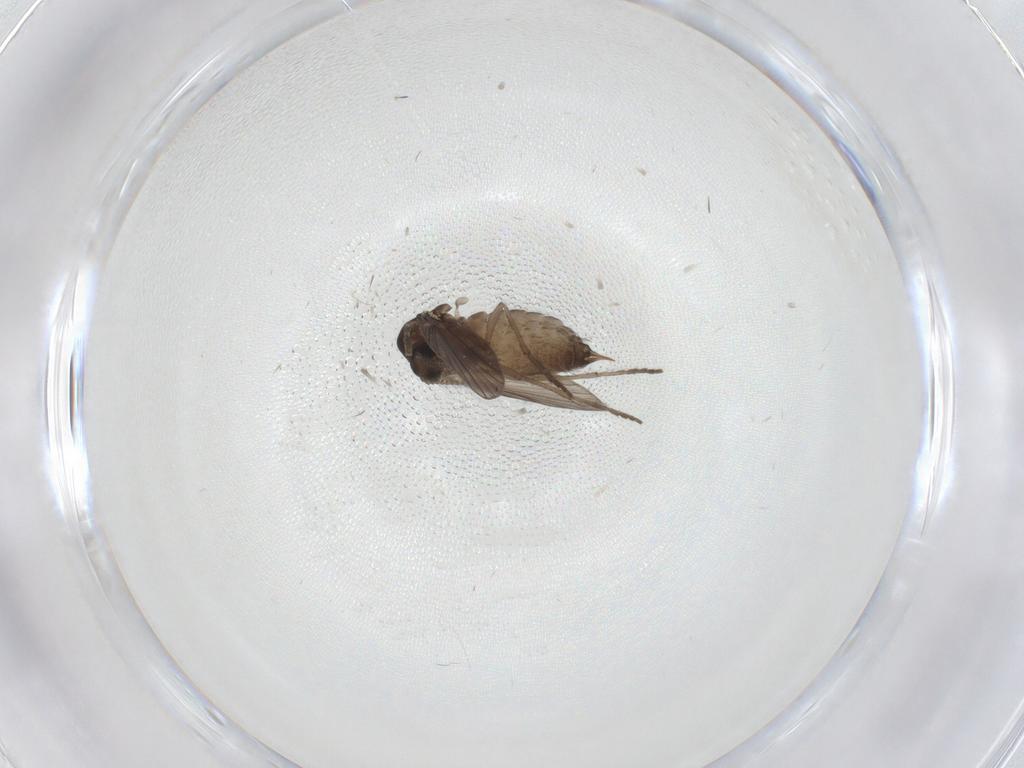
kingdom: Animalia
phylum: Arthropoda
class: Insecta
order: Diptera
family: Psychodidae
